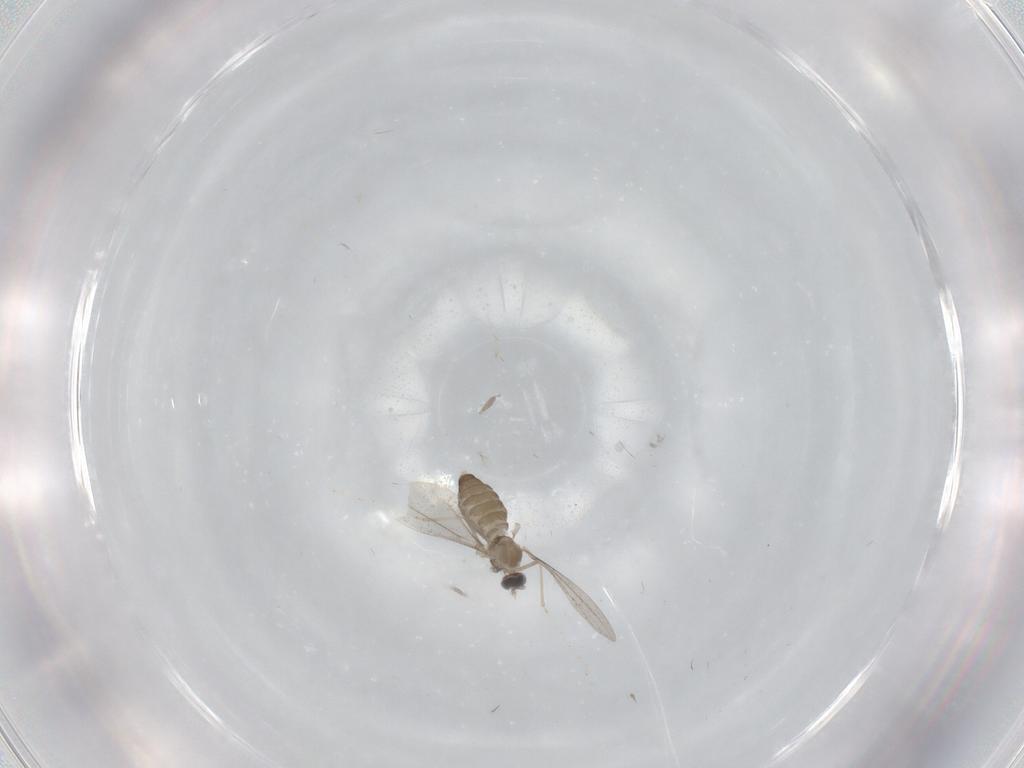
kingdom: Animalia
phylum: Arthropoda
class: Insecta
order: Diptera
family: Cecidomyiidae
